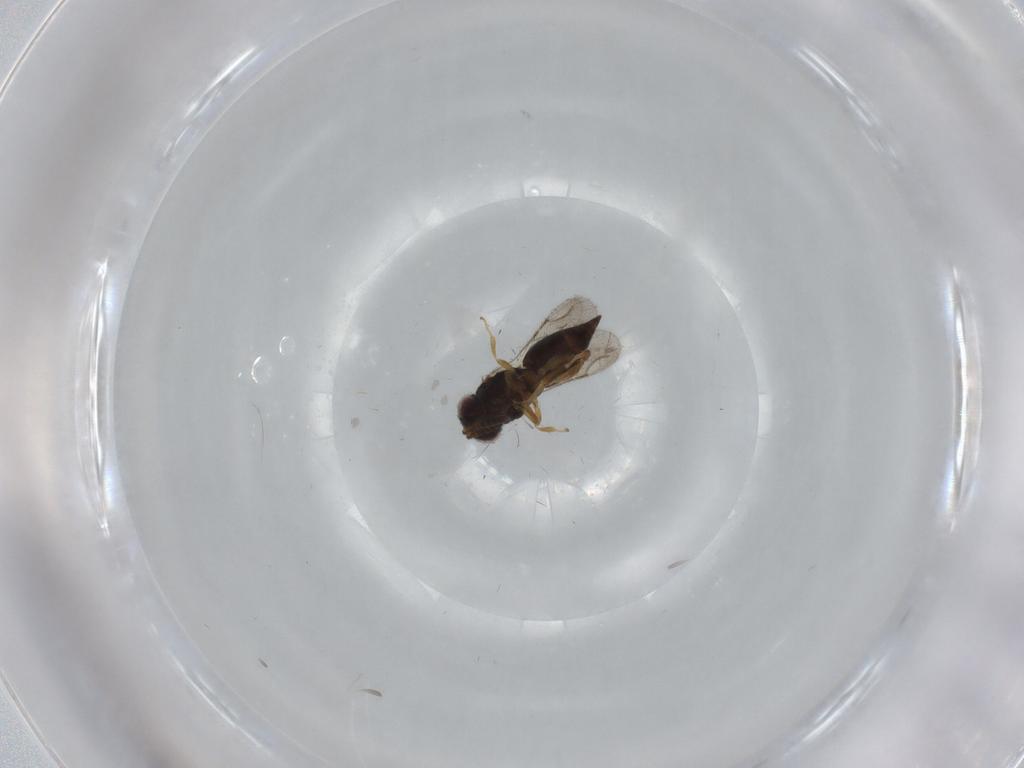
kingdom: Animalia
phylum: Arthropoda
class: Insecta
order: Hymenoptera
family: Ceraphronidae
